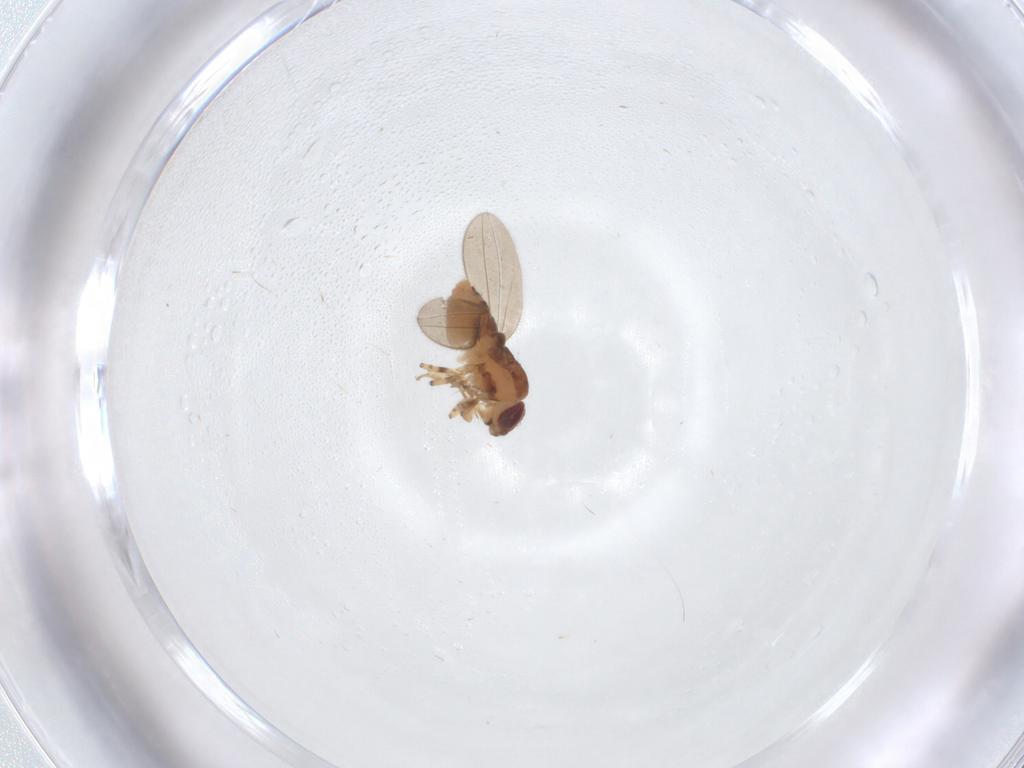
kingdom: Animalia
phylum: Arthropoda
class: Insecta
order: Diptera
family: Asteiidae
